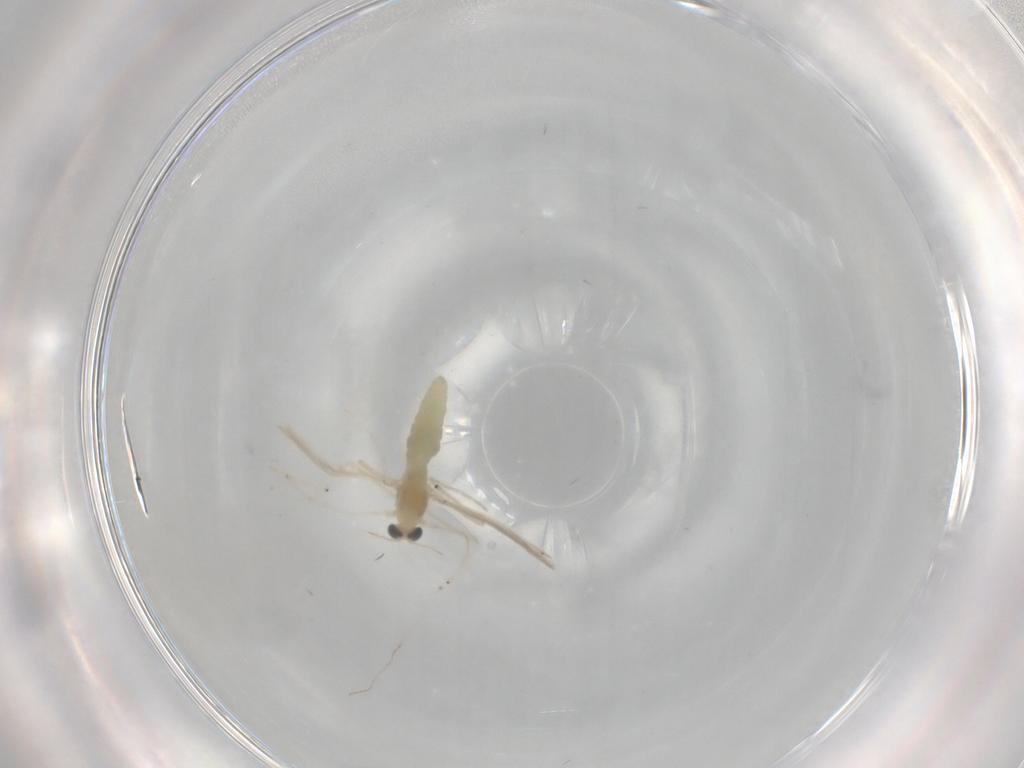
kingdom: Animalia
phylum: Arthropoda
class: Insecta
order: Diptera
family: Chironomidae
